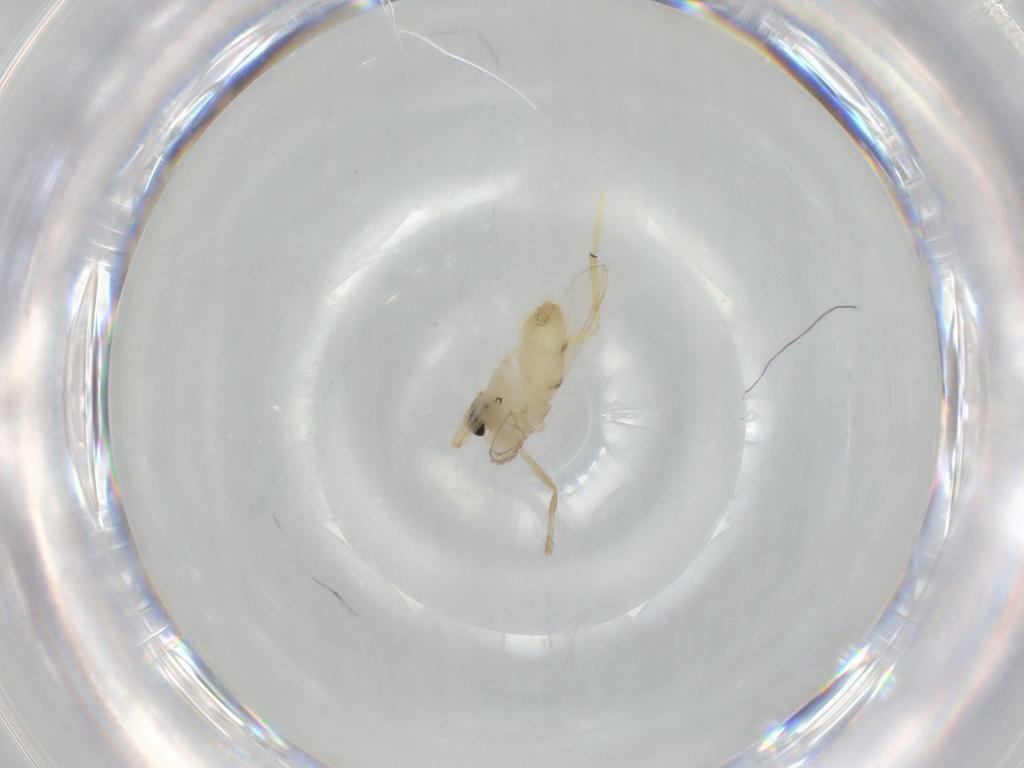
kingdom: Animalia
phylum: Arthropoda
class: Insecta
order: Diptera
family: Chironomidae
